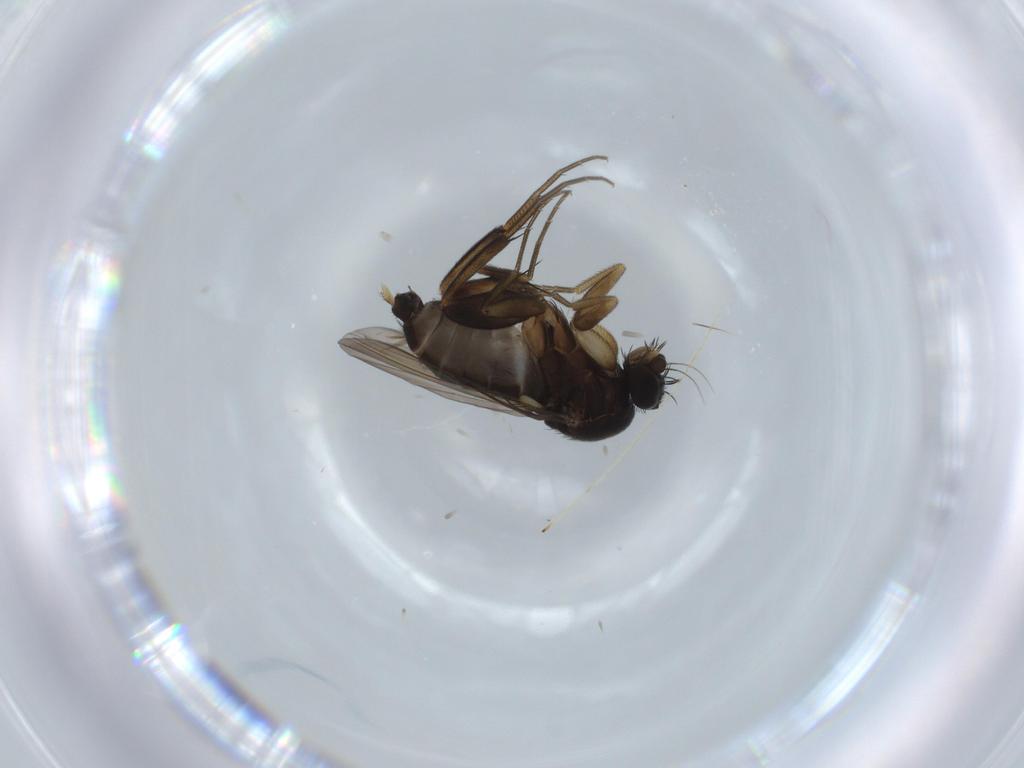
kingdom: Animalia
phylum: Arthropoda
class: Insecta
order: Diptera
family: Phoridae
